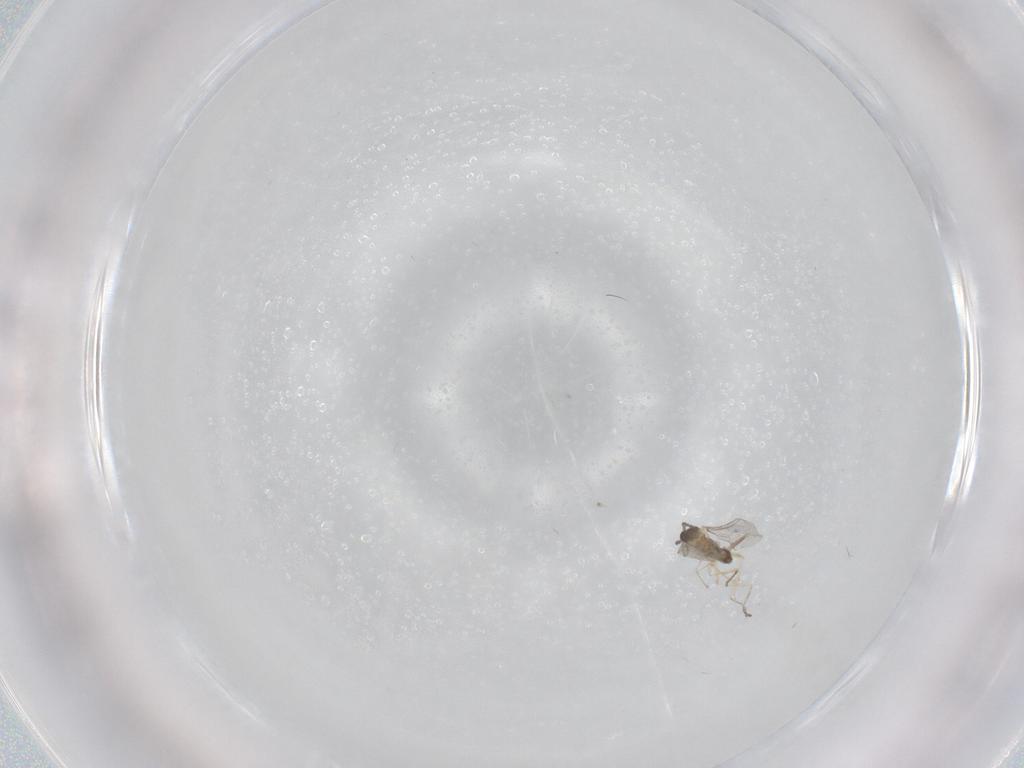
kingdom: Animalia
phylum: Arthropoda
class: Insecta
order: Diptera
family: Cecidomyiidae
